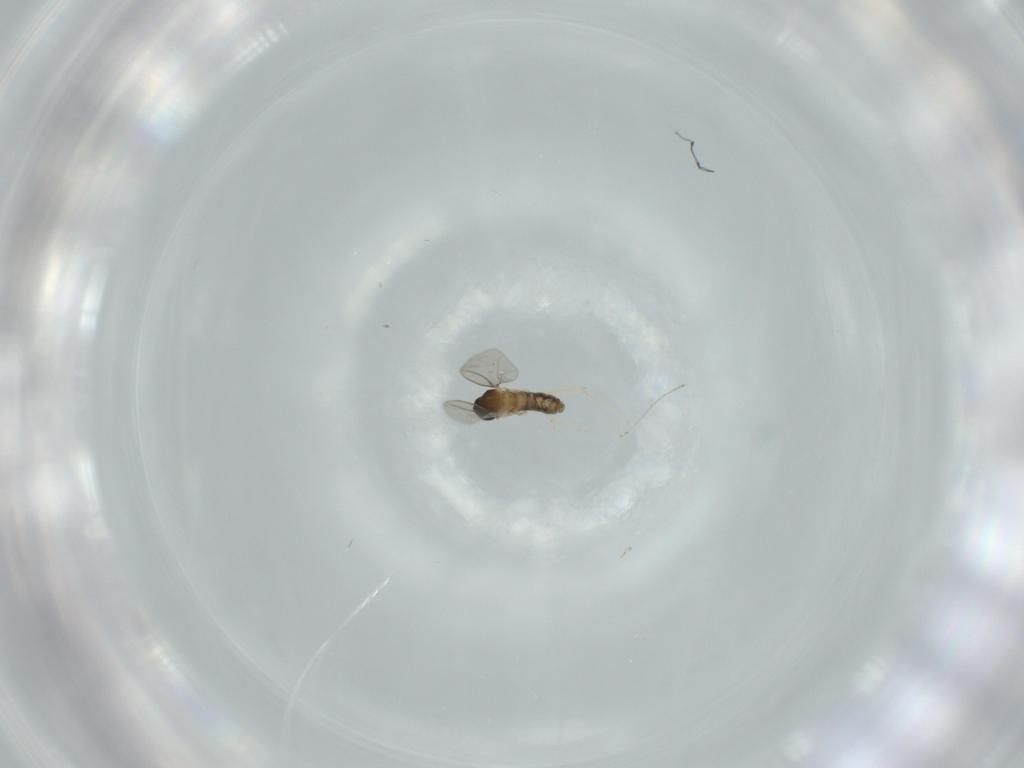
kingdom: Animalia
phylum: Arthropoda
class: Insecta
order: Diptera
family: Cecidomyiidae
